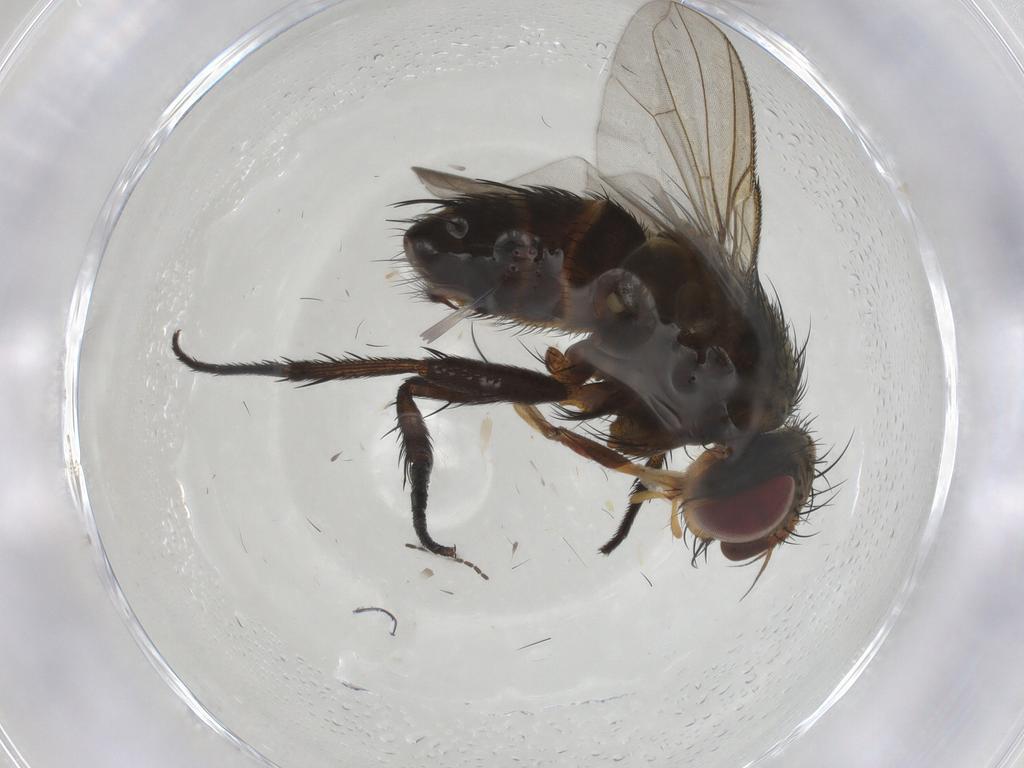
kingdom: Animalia
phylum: Arthropoda
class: Insecta
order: Diptera
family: Tachinidae
